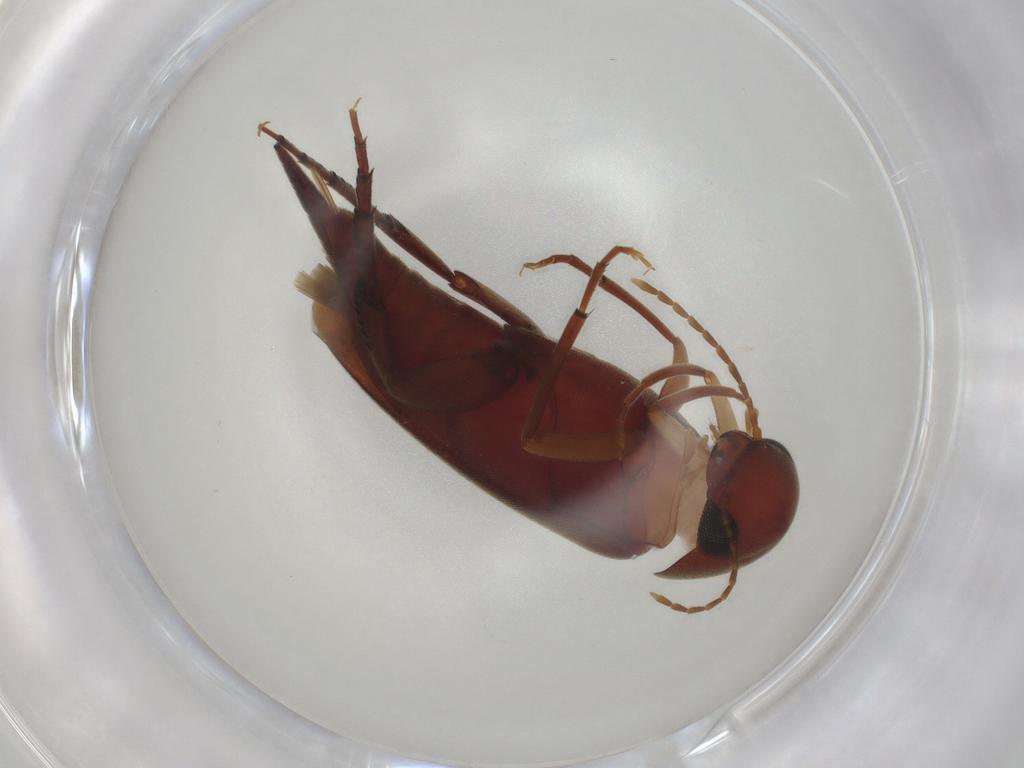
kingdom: Animalia
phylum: Arthropoda
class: Insecta
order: Coleoptera
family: Mordellidae
